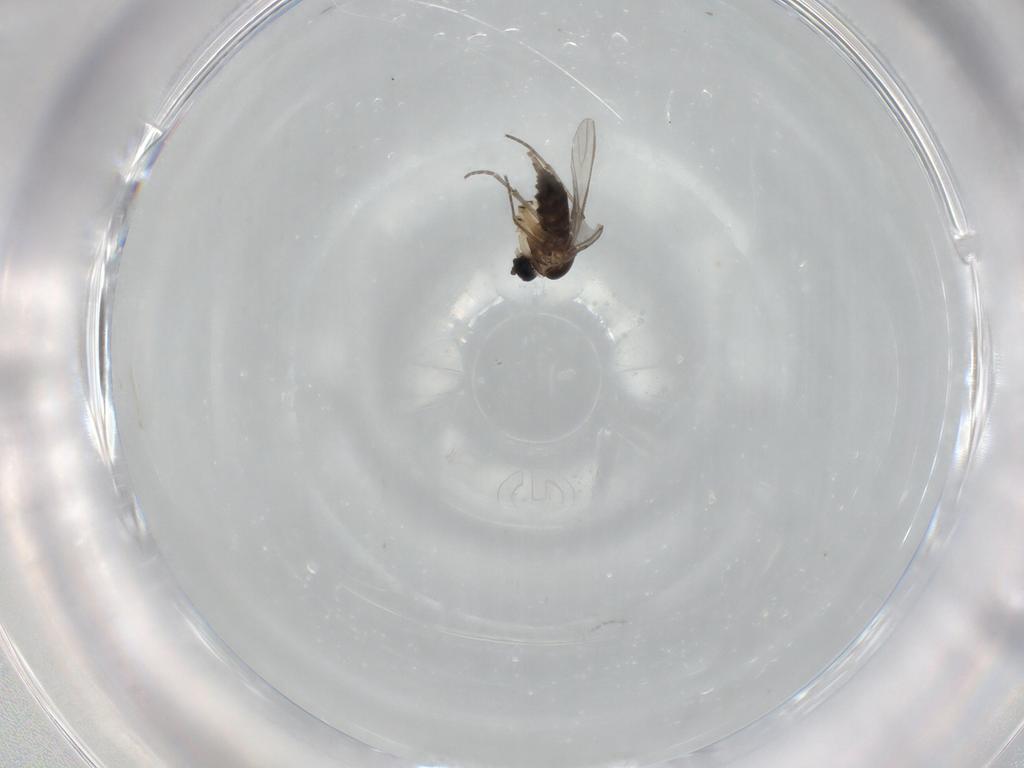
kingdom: Animalia
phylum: Arthropoda
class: Insecta
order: Diptera
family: Sciaridae
